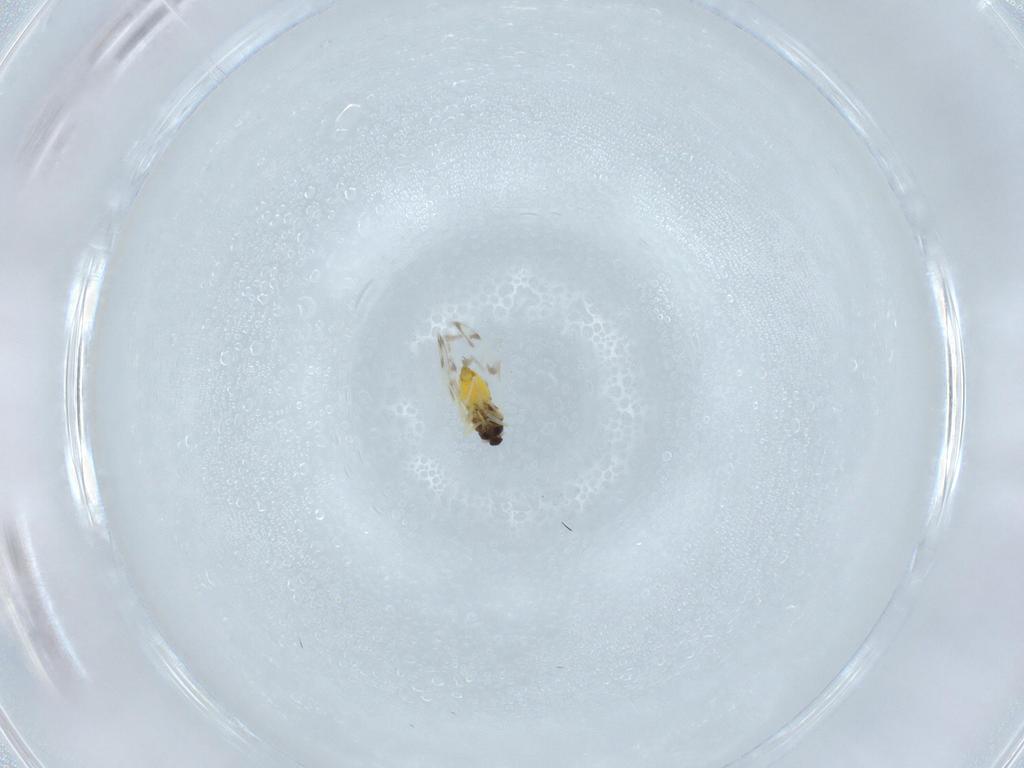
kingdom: Animalia
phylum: Arthropoda
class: Insecta
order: Hemiptera
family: Aleyrodidae
